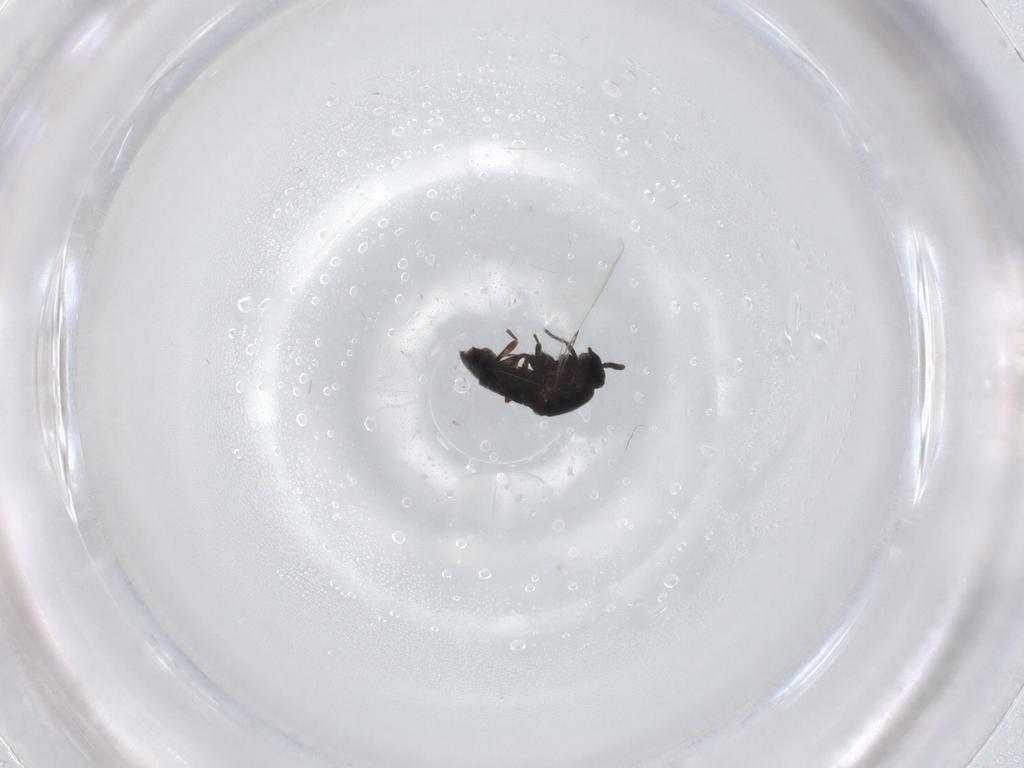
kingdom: Animalia
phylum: Arthropoda
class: Insecta
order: Diptera
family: Scatopsidae
